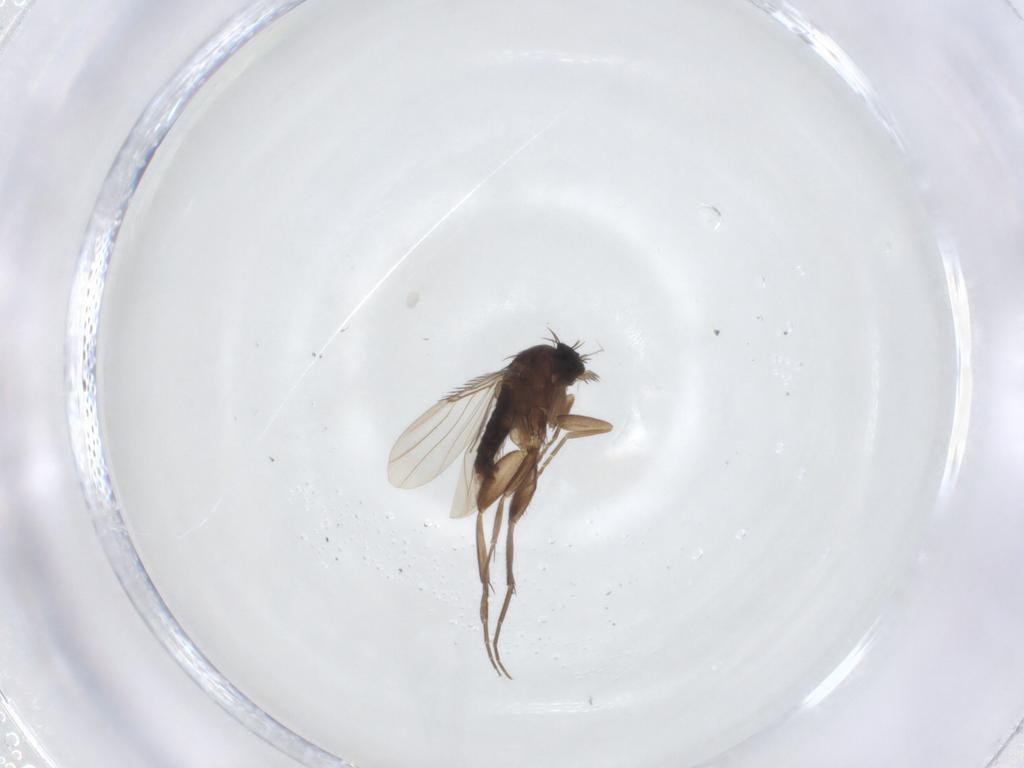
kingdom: Animalia
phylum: Arthropoda
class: Insecta
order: Diptera
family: Phoridae
